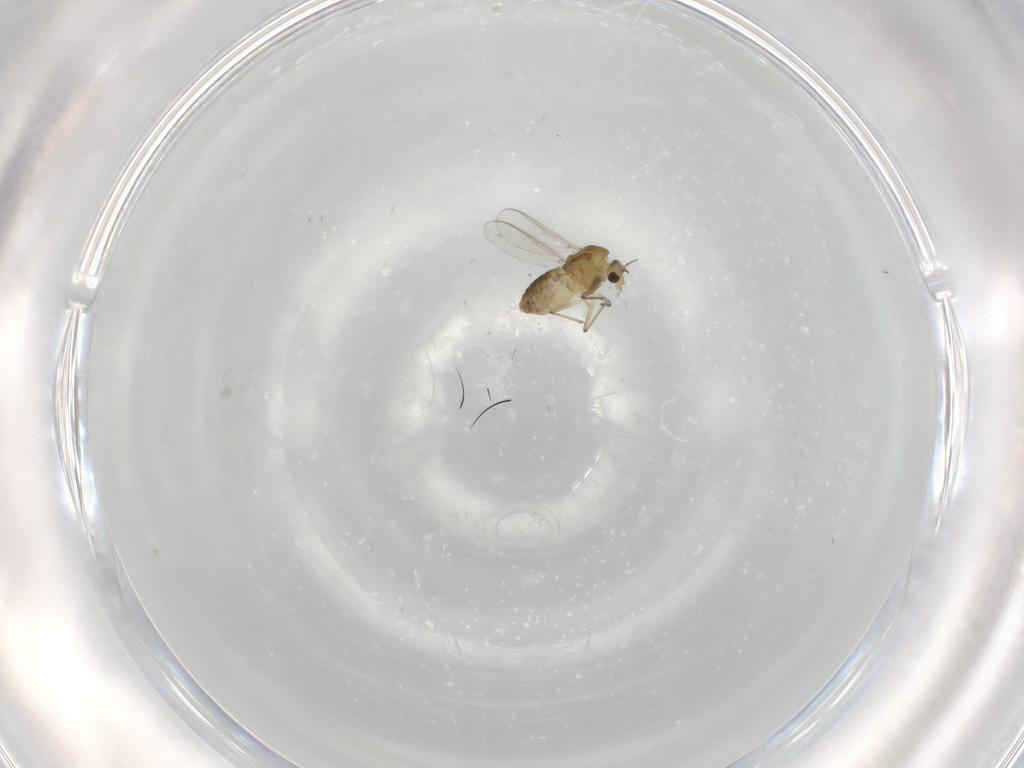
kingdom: Animalia
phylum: Arthropoda
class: Insecta
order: Diptera
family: Chironomidae
